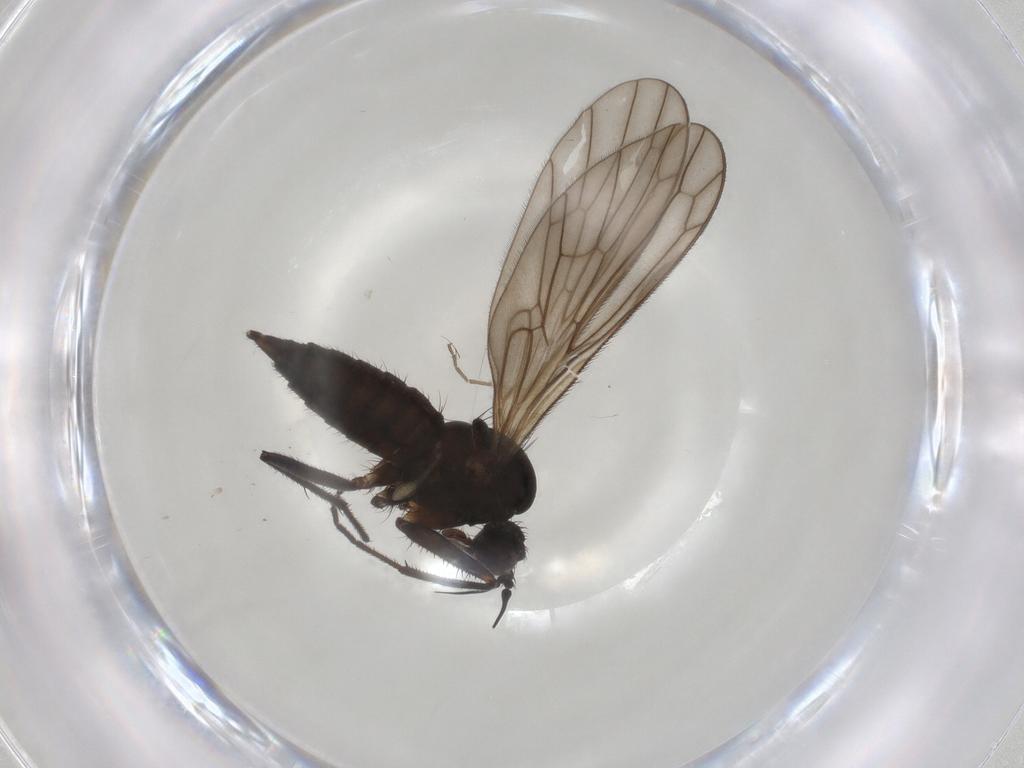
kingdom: Animalia
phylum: Arthropoda
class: Insecta
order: Diptera
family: Empididae
